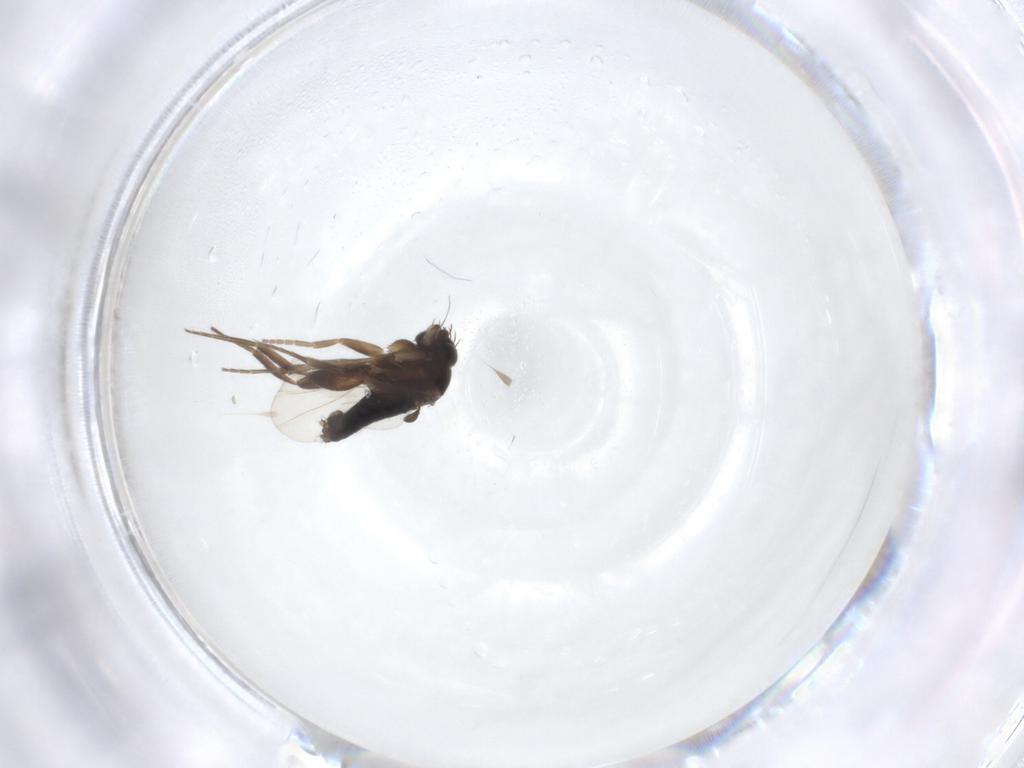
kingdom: Animalia
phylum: Arthropoda
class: Insecta
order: Diptera
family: Phoridae
